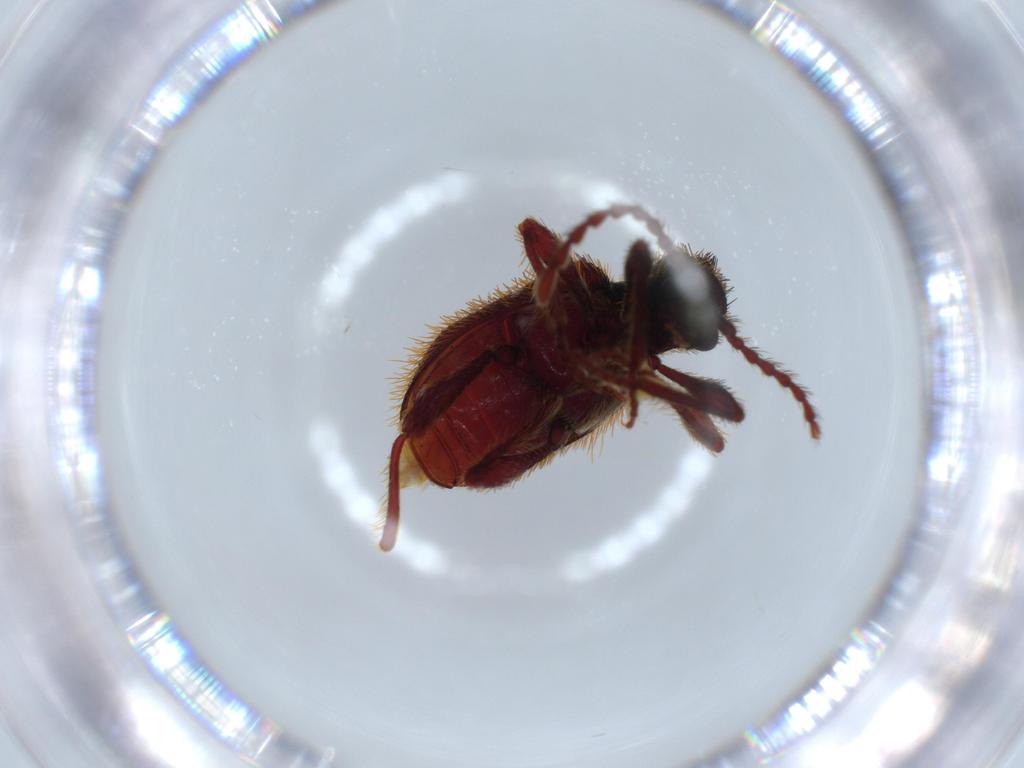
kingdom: Animalia
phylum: Arthropoda
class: Insecta
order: Coleoptera
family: Ptinidae
